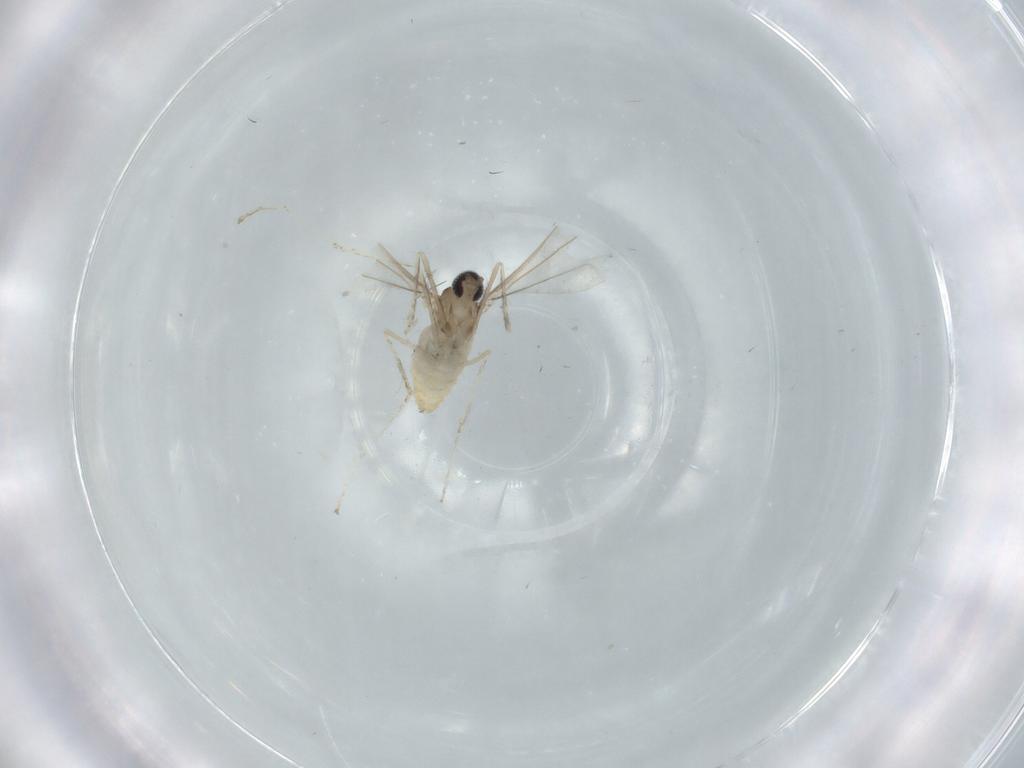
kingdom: Animalia
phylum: Arthropoda
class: Insecta
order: Diptera
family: Cecidomyiidae
